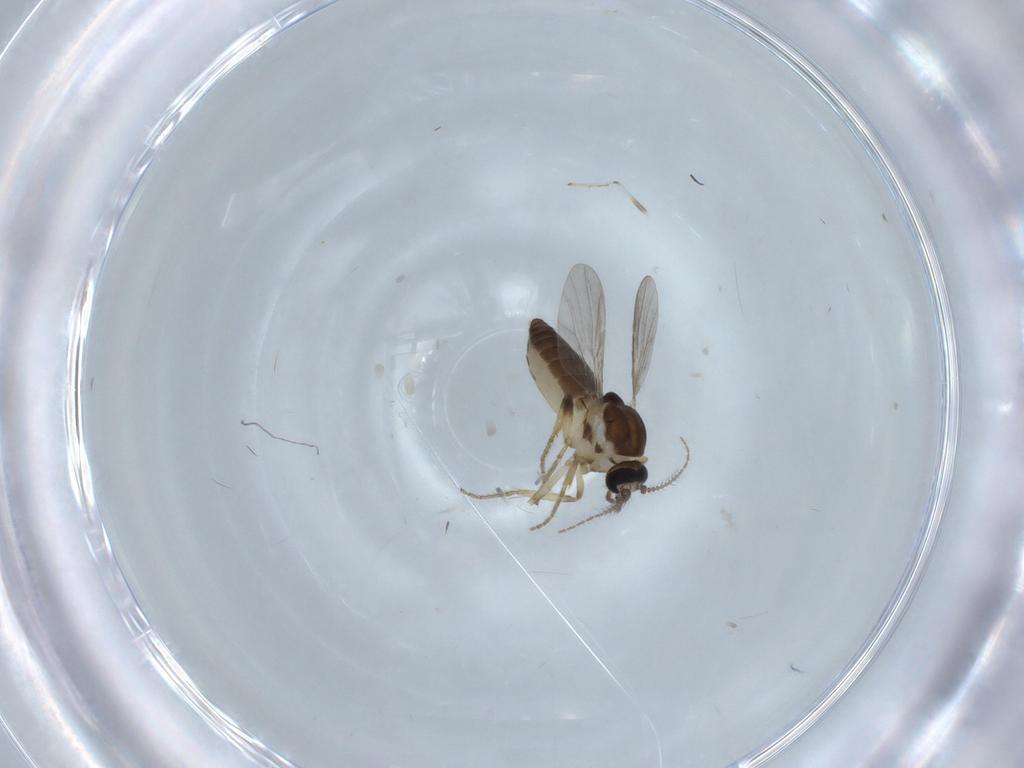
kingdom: Animalia
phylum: Arthropoda
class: Insecta
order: Diptera
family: Ceratopogonidae
